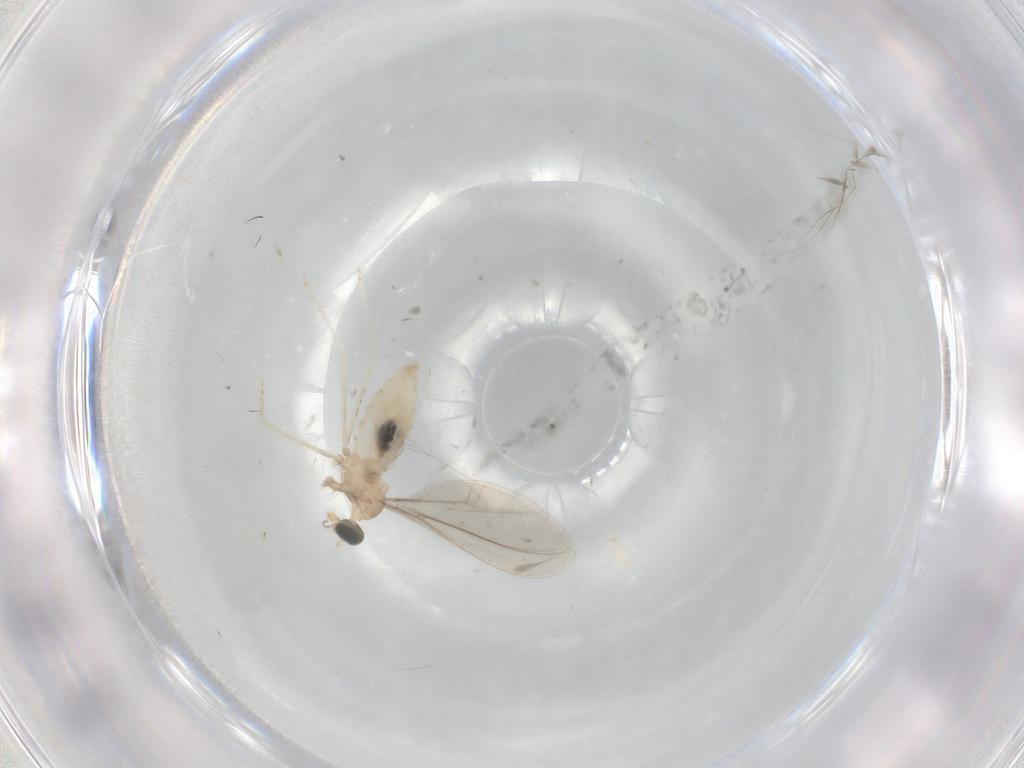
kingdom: Animalia
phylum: Arthropoda
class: Insecta
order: Diptera
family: Cecidomyiidae
